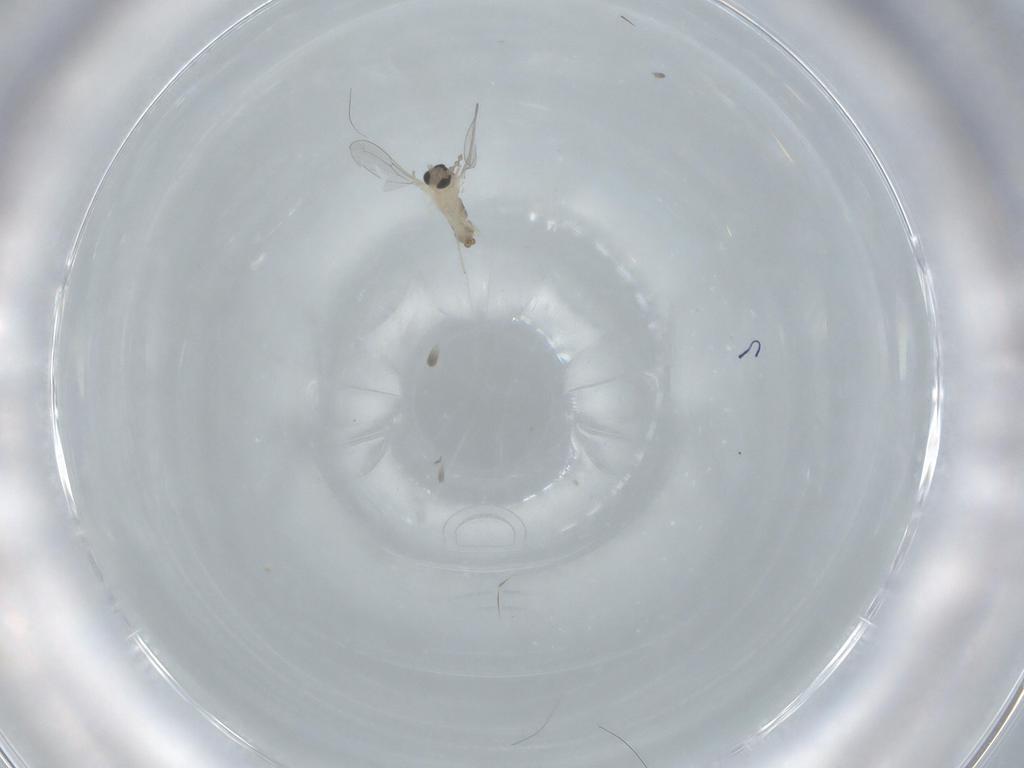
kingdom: Animalia
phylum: Arthropoda
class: Insecta
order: Diptera
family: Cecidomyiidae
